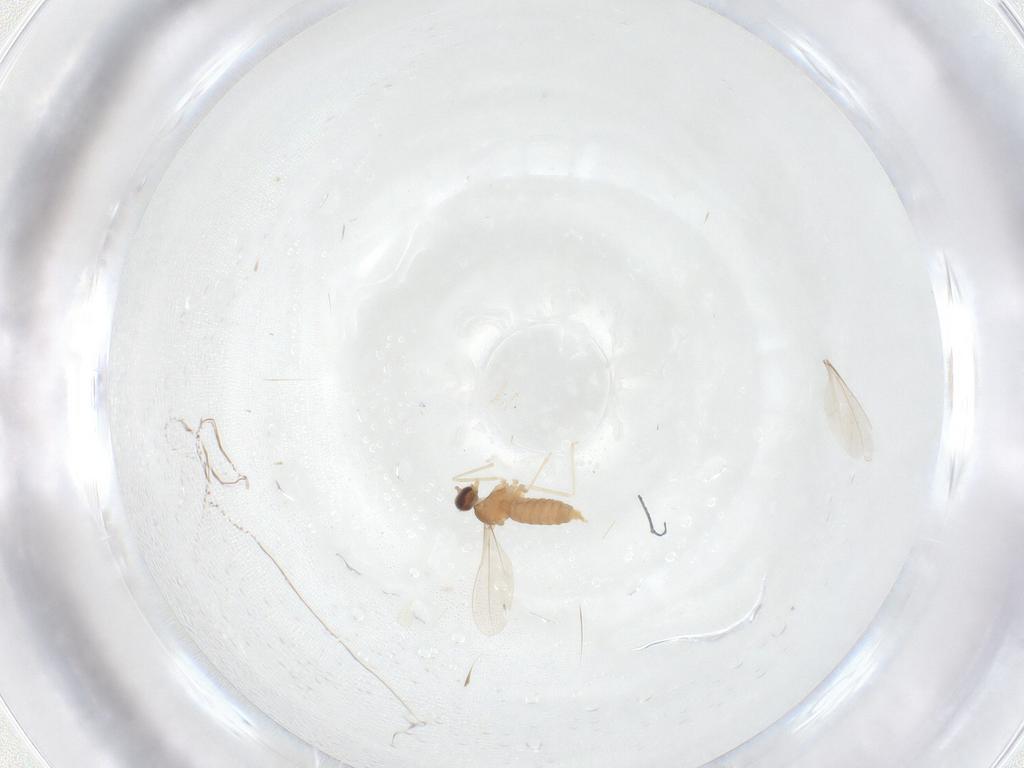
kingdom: Animalia
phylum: Arthropoda
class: Insecta
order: Diptera
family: Cecidomyiidae
